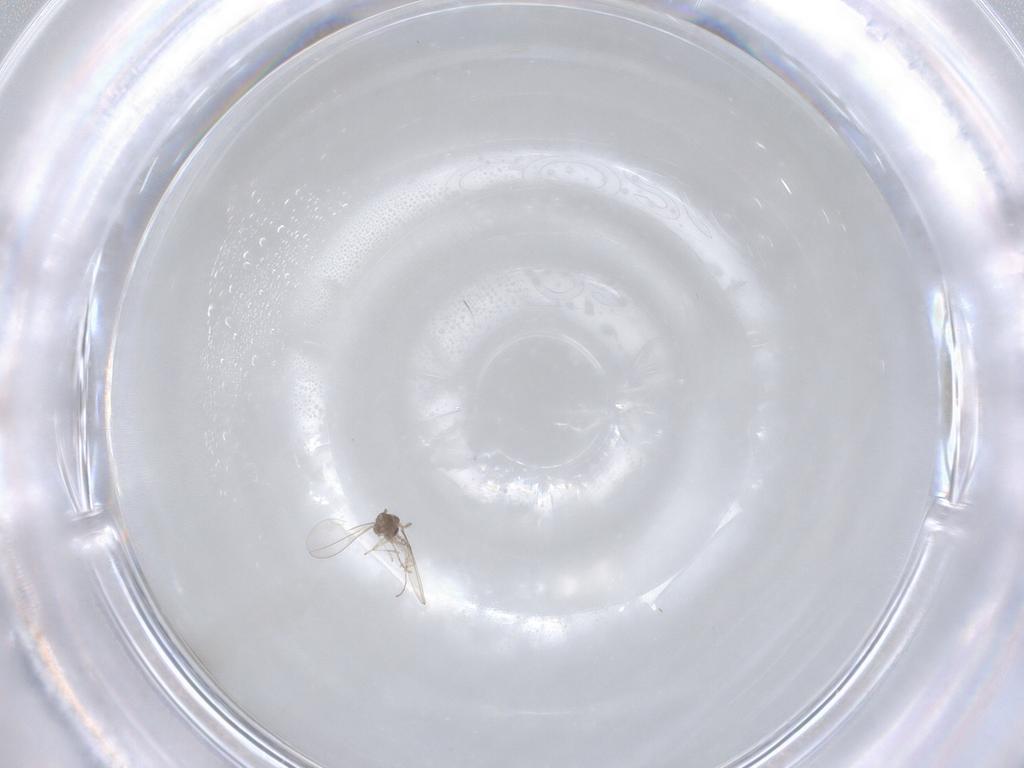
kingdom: Animalia
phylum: Arthropoda
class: Insecta
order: Diptera
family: Cecidomyiidae
